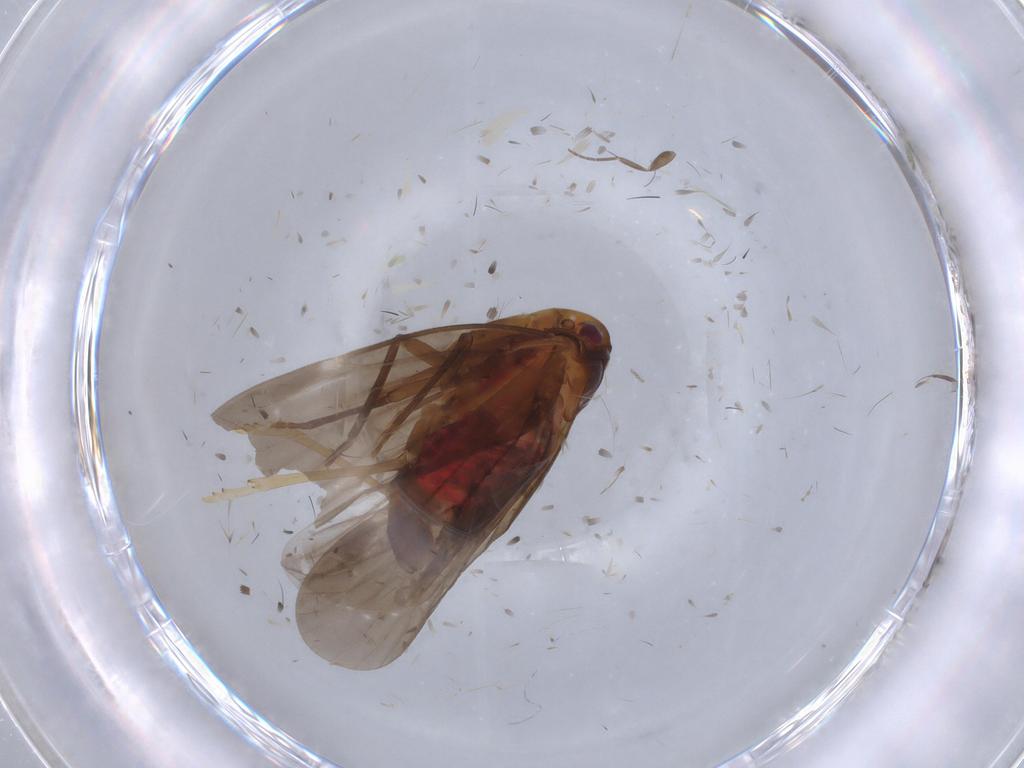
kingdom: Animalia
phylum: Arthropoda
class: Insecta
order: Hemiptera
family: Derbidae
